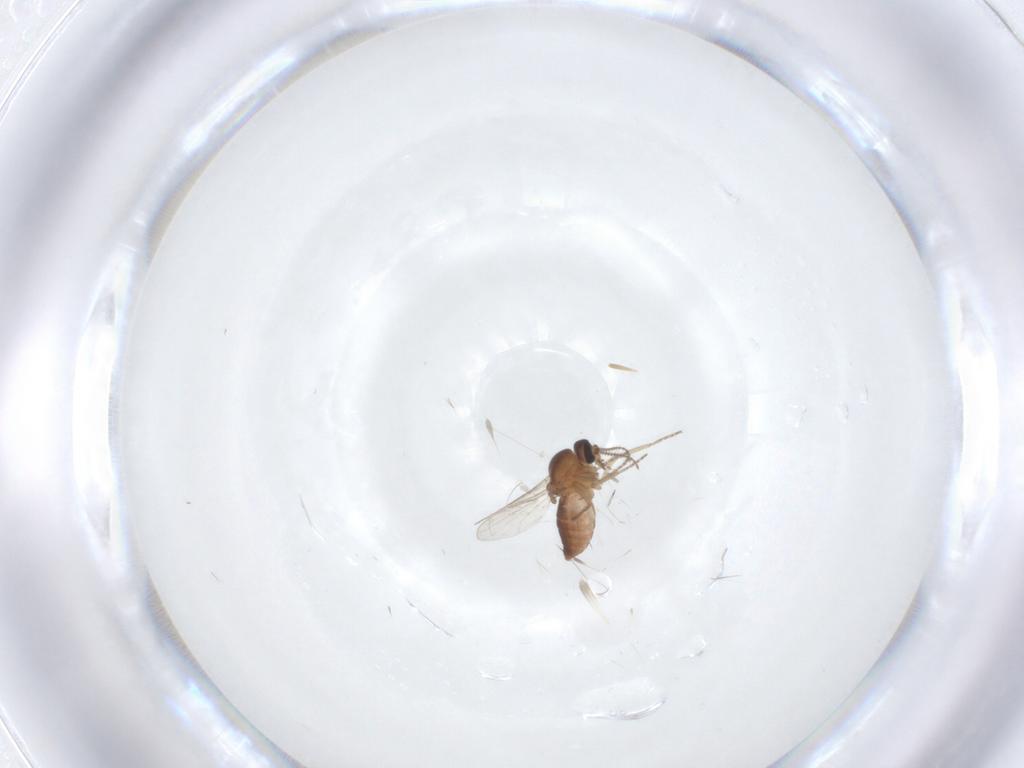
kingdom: Animalia
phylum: Arthropoda
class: Insecta
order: Diptera
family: Ceratopogonidae
